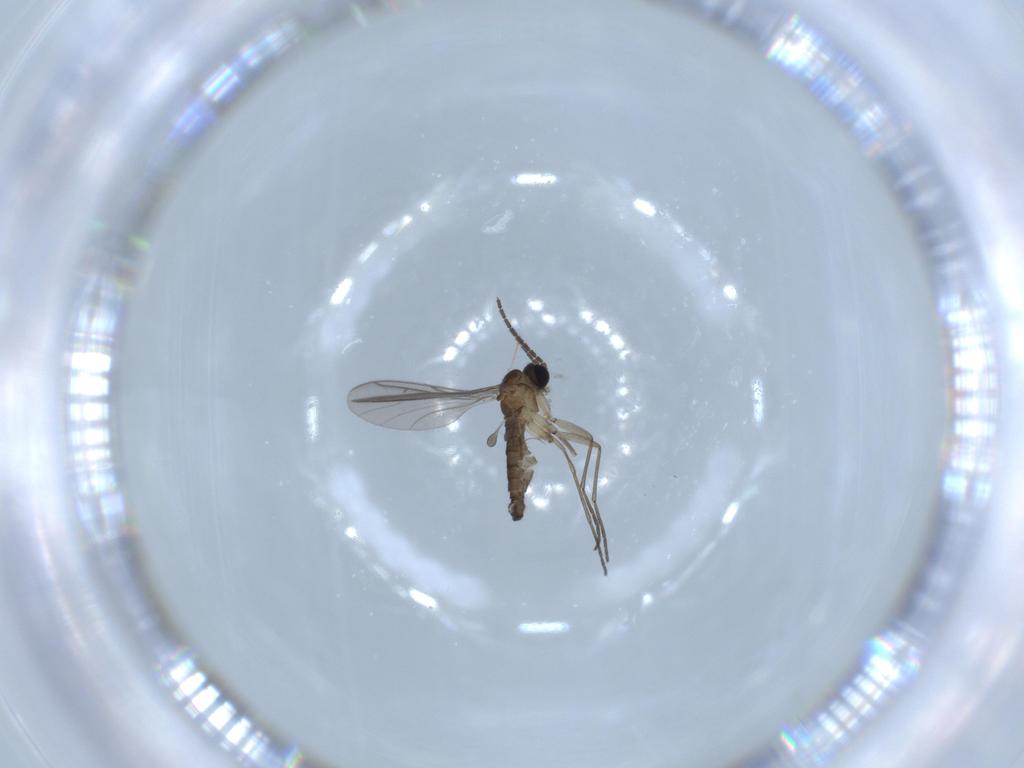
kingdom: Animalia
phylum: Arthropoda
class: Insecta
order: Diptera
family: Sciaridae
